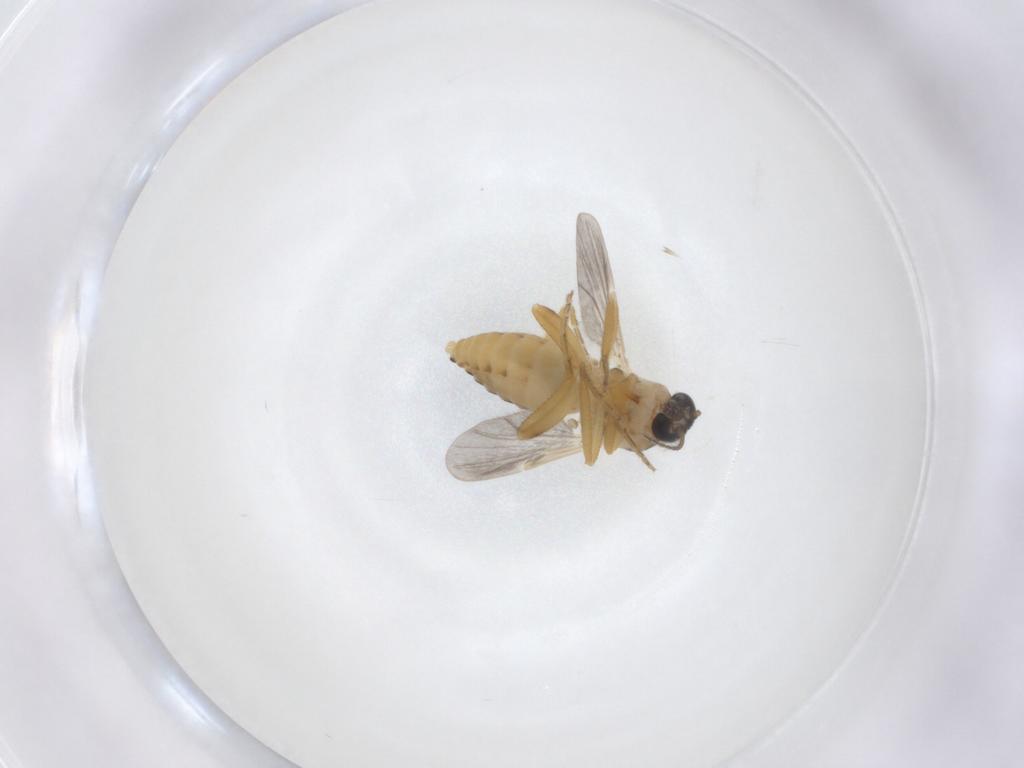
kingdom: Animalia
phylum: Arthropoda
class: Insecta
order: Diptera
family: Ceratopogonidae
